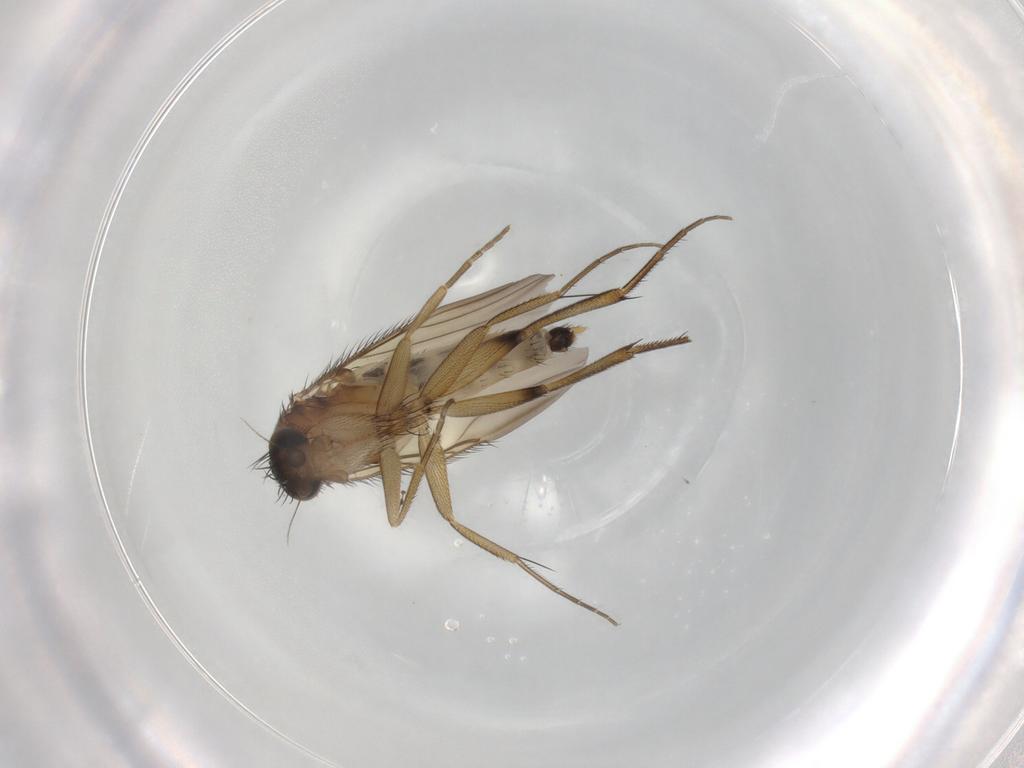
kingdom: Animalia
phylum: Arthropoda
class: Insecta
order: Diptera
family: Phoridae
